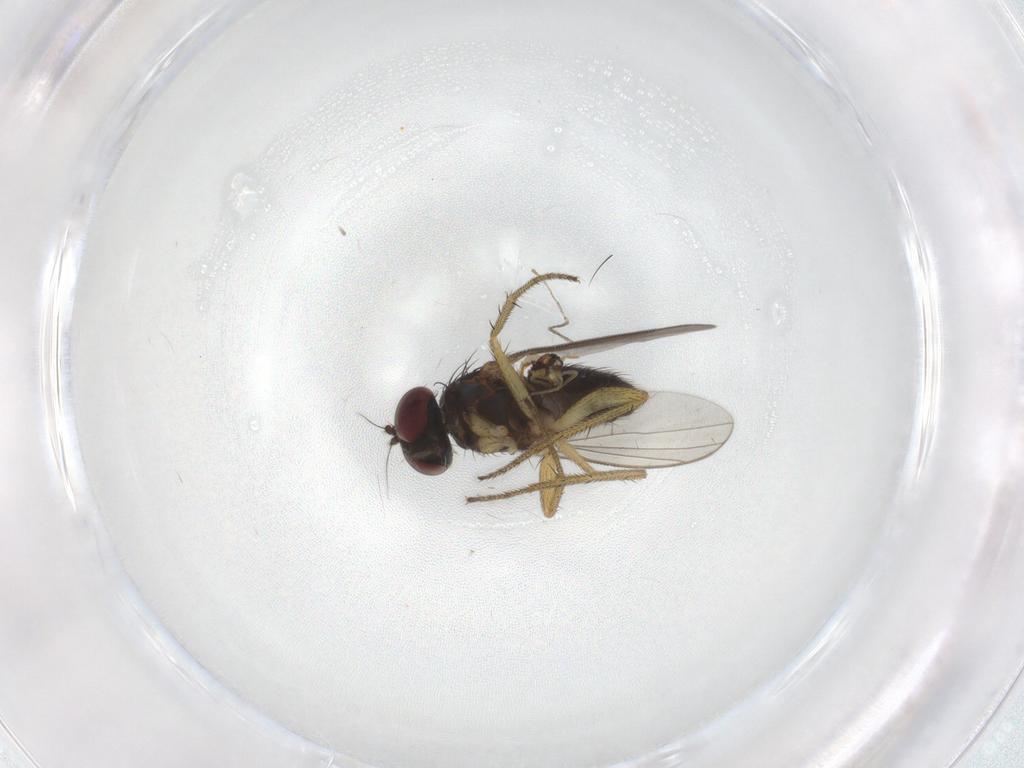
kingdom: Animalia
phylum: Arthropoda
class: Insecta
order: Diptera
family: Dolichopodidae
